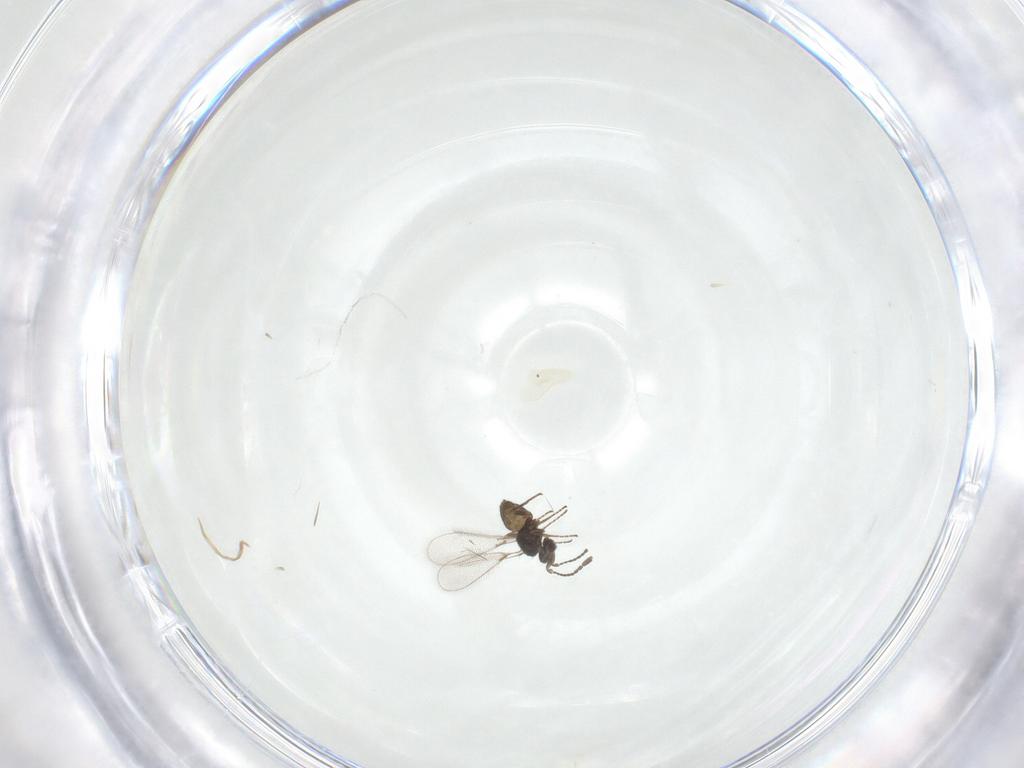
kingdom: Animalia
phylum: Arthropoda
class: Insecta
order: Hymenoptera
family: Mymaridae
